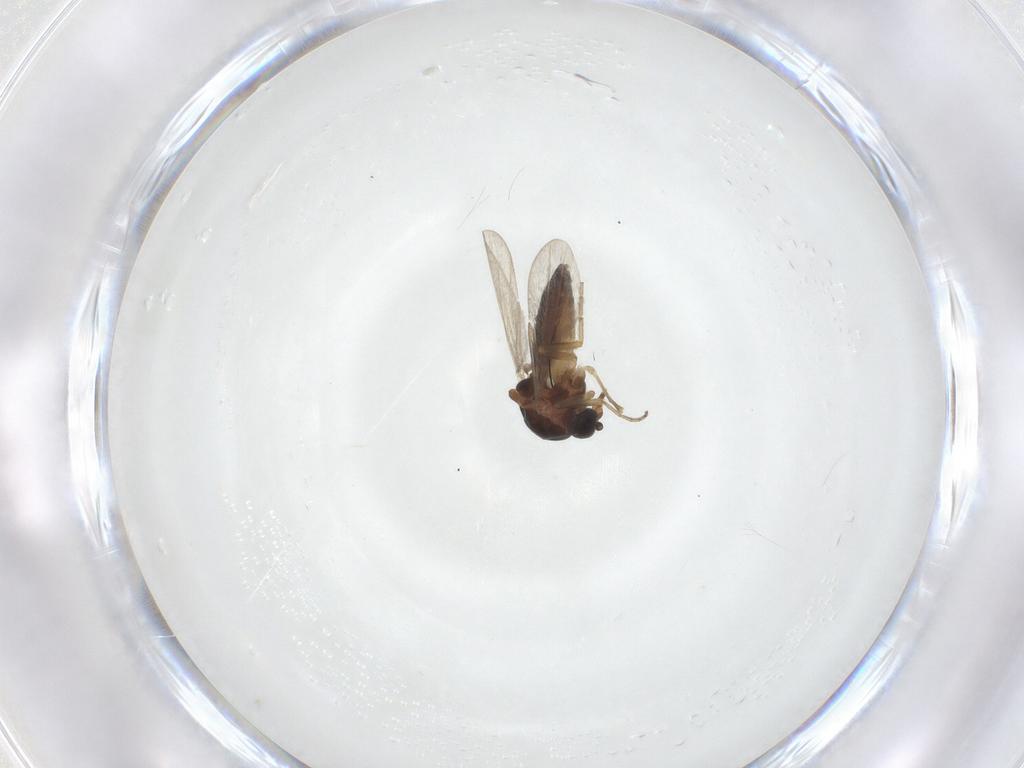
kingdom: Animalia
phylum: Arthropoda
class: Insecta
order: Diptera
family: Ceratopogonidae
